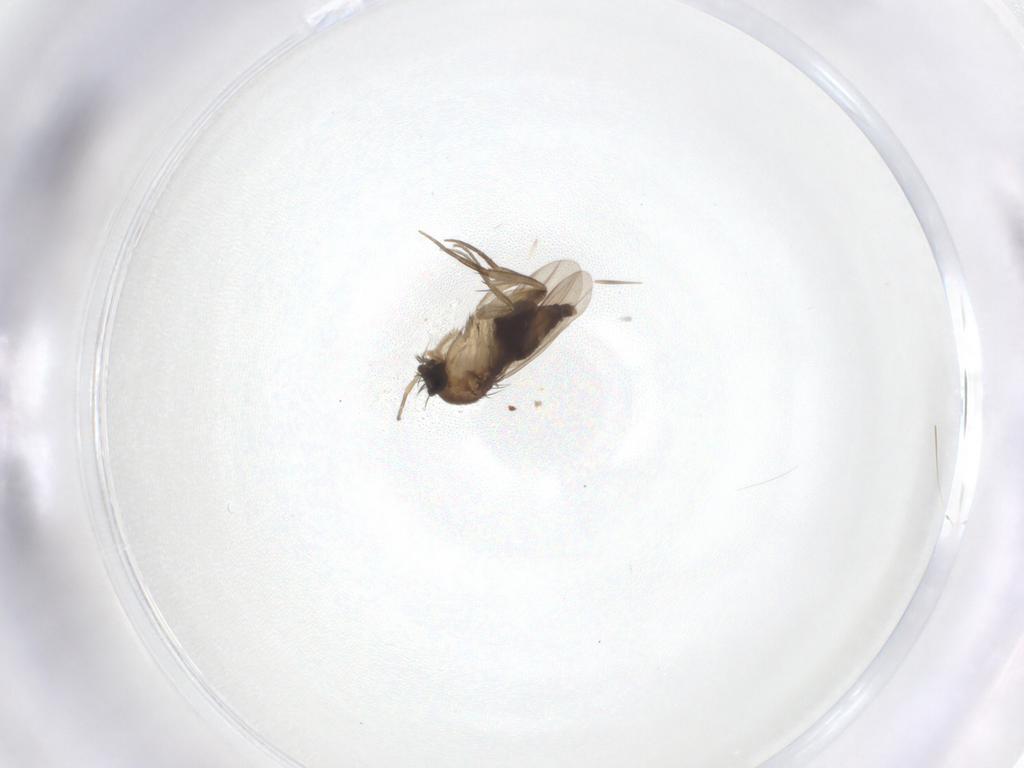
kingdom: Animalia
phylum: Arthropoda
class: Insecta
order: Diptera
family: Phoridae
